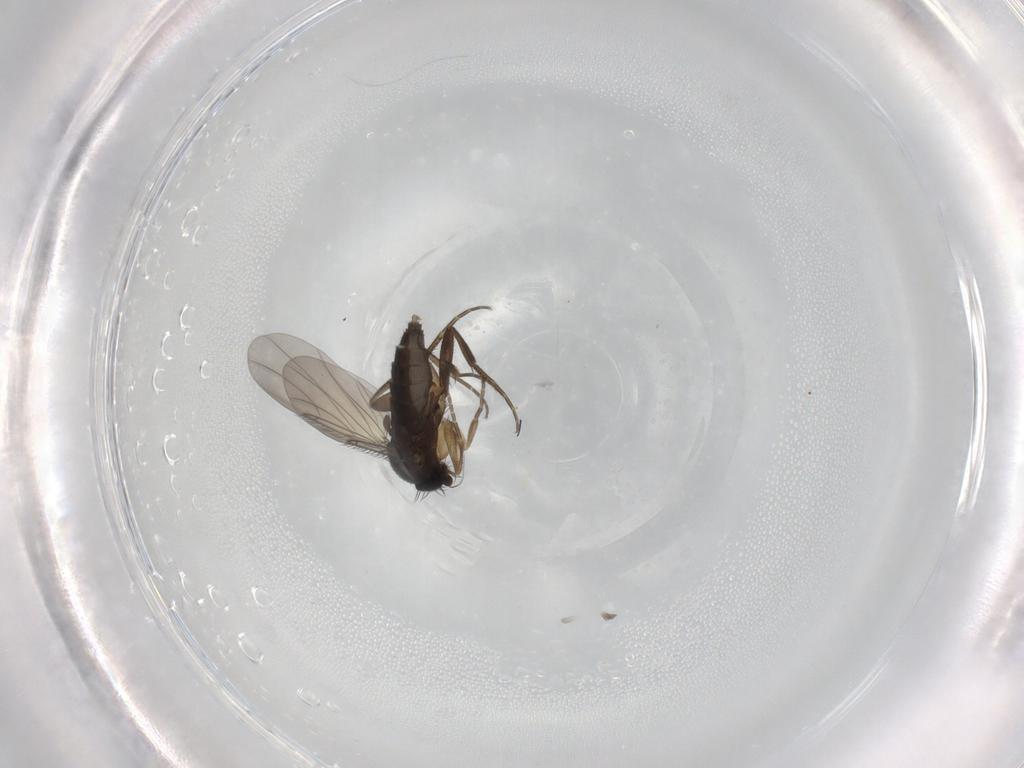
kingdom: Animalia
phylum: Arthropoda
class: Insecta
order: Diptera
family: Phoridae
